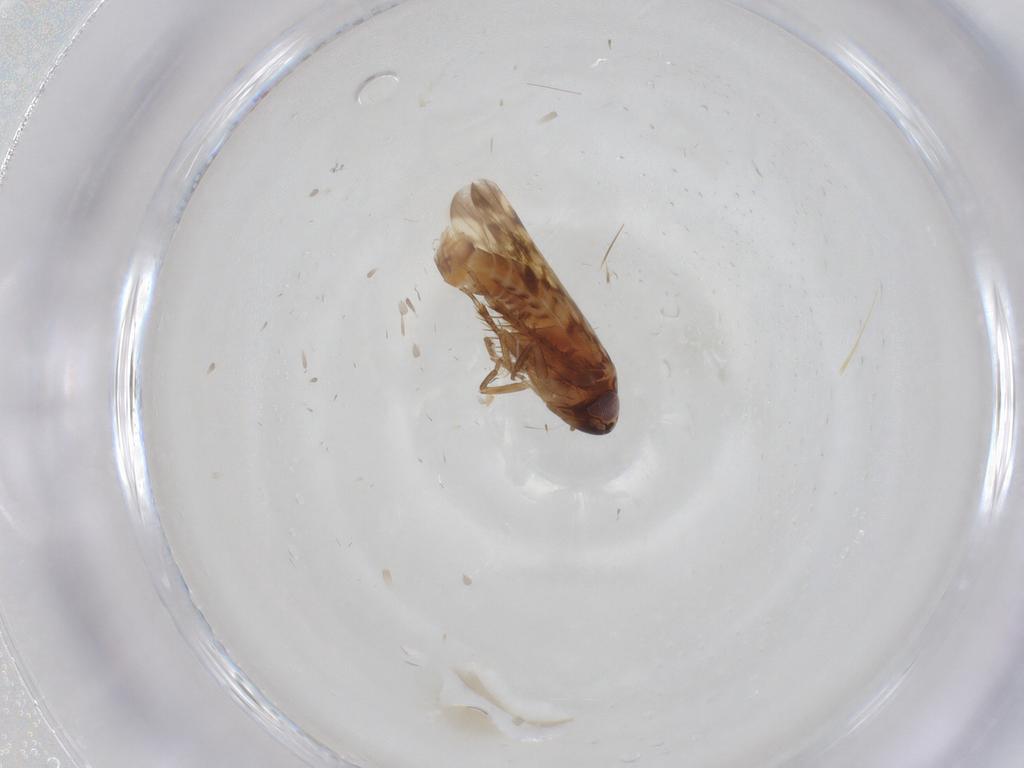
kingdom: Animalia
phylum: Arthropoda
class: Insecta
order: Hemiptera
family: Cicadellidae
